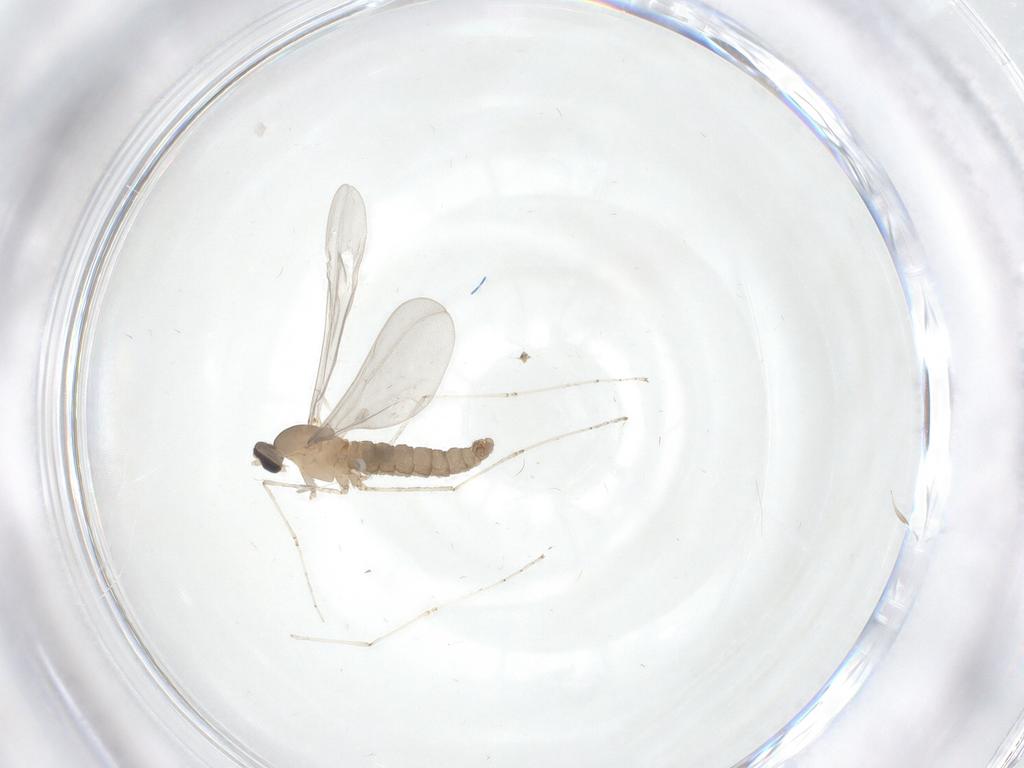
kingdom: Animalia
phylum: Arthropoda
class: Insecta
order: Diptera
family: Cecidomyiidae
